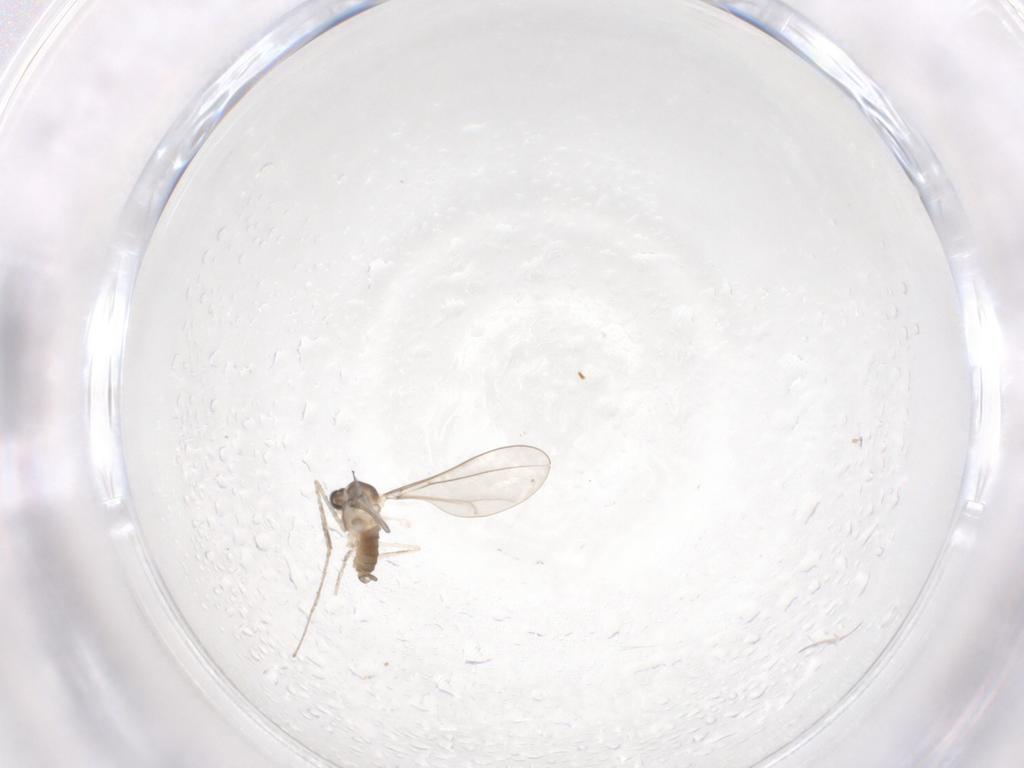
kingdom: Animalia
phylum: Arthropoda
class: Insecta
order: Diptera
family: Cecidomyiidae
